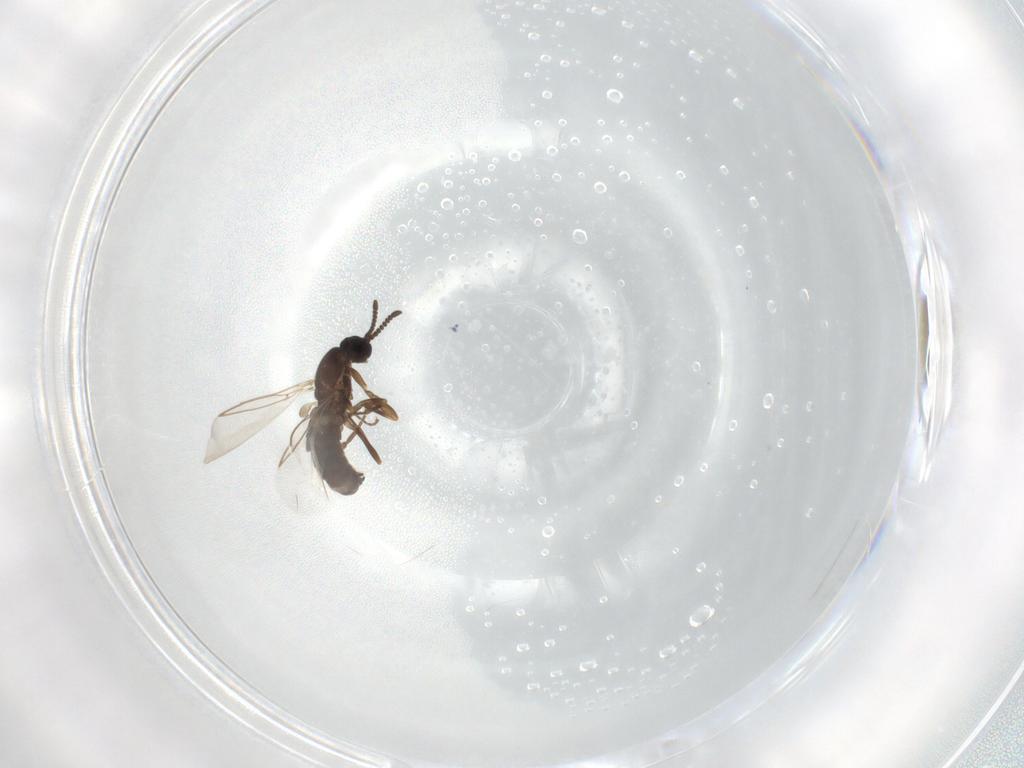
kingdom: Animalia
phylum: Arthropoda
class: Insecta
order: Diptera
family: Scatopsidae
